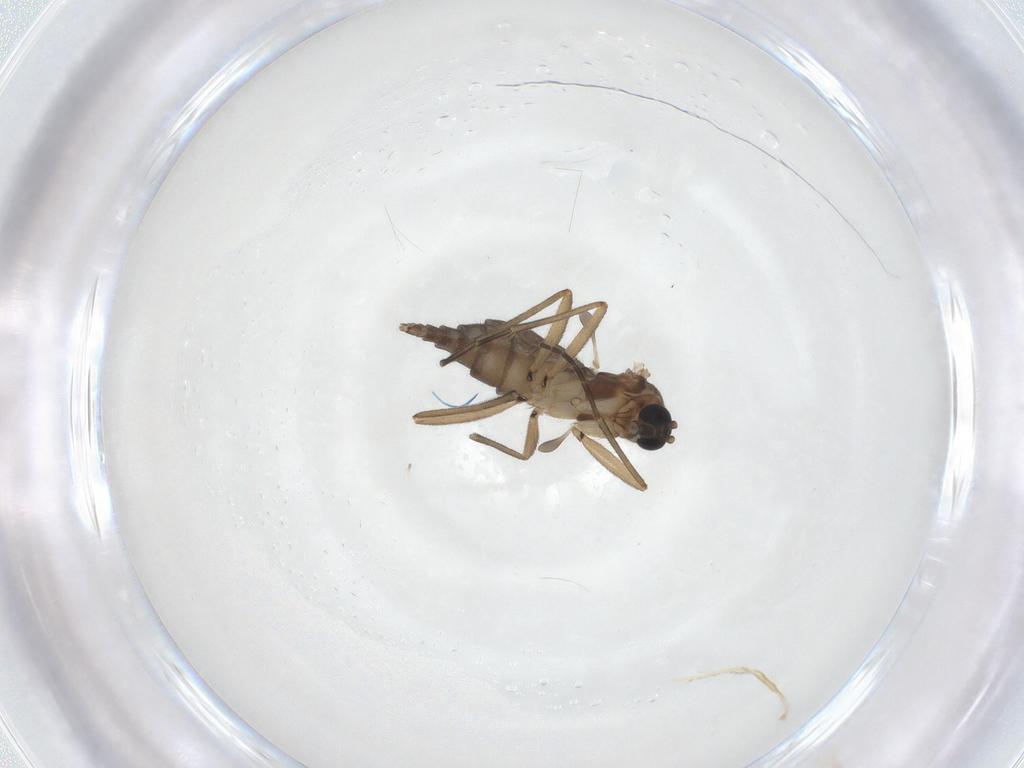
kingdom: Animalia
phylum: Arthropoda
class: Insecta
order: Diptera
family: Sciaridae
